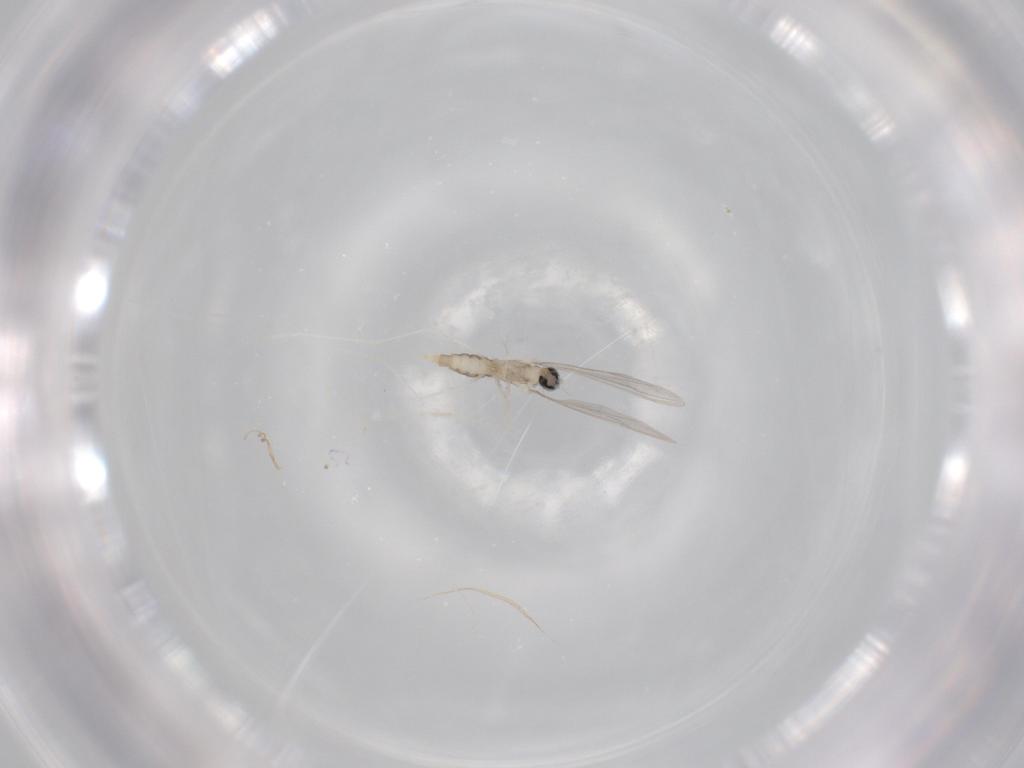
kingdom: Animalia
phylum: Arthropoda
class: Insecta
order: Diptera
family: Cecidomyiidae
